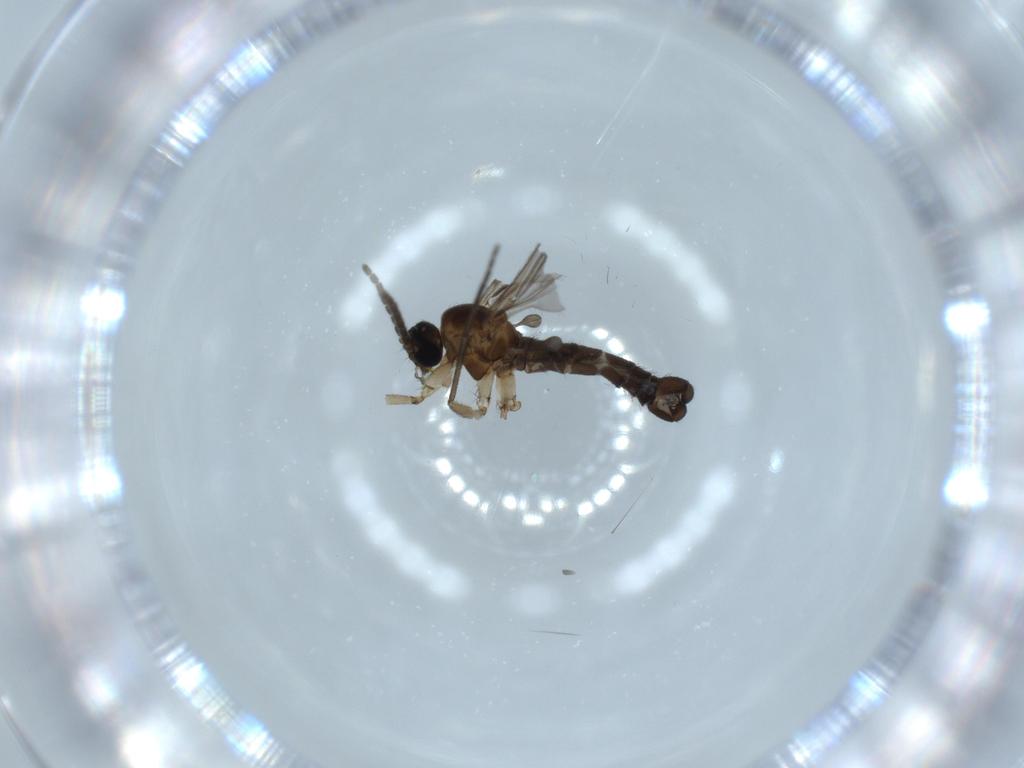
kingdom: Animalia
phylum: Arthropoda
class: Insecta
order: Diptera
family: Sciaridae
